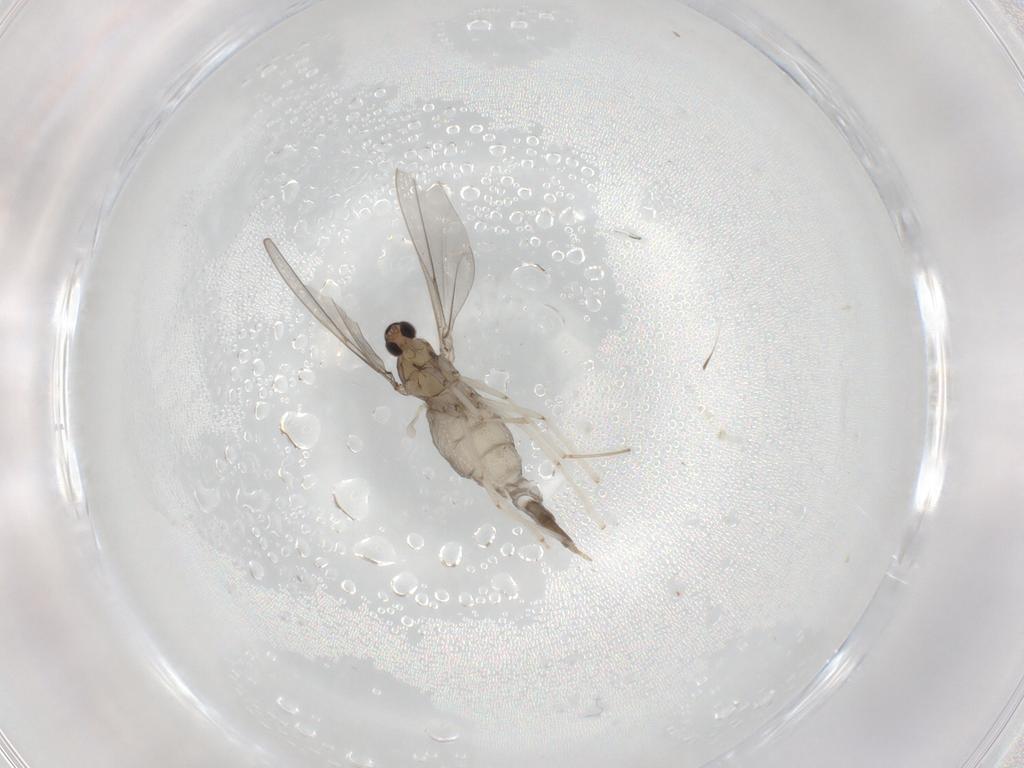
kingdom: Animalia
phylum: Arthropoda
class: Insecta
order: Diptera
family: Cecidomyiidae
